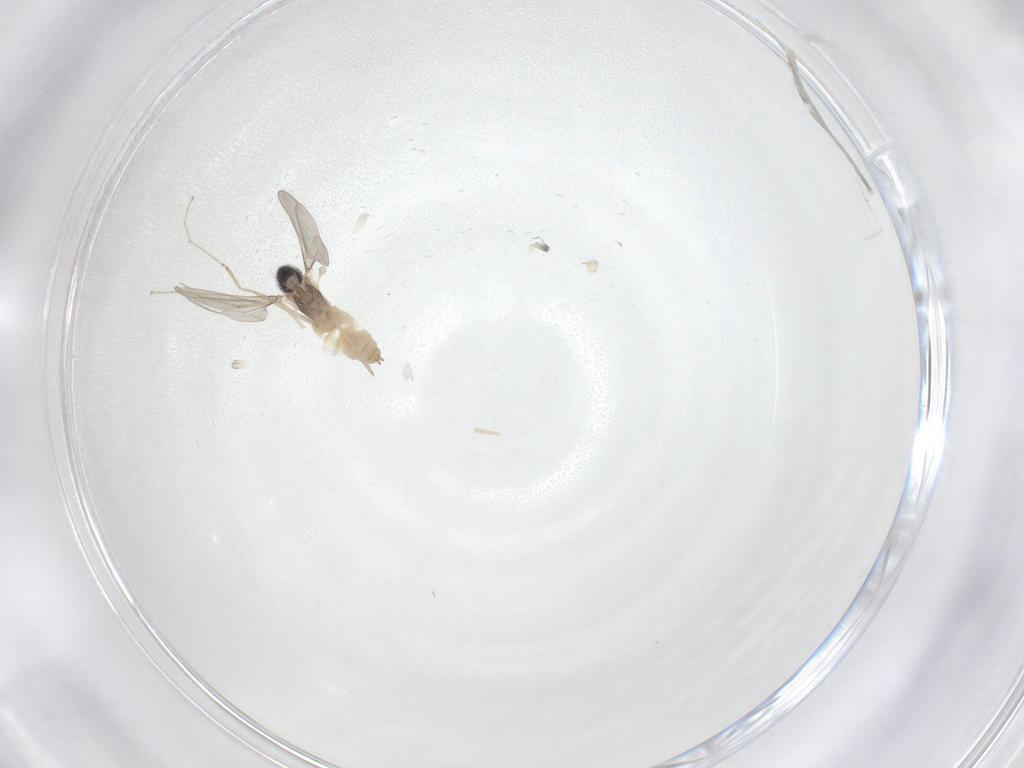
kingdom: Animalia
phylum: Arthropoda
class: Insecta
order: Diptera
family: Cecidomyiidae
